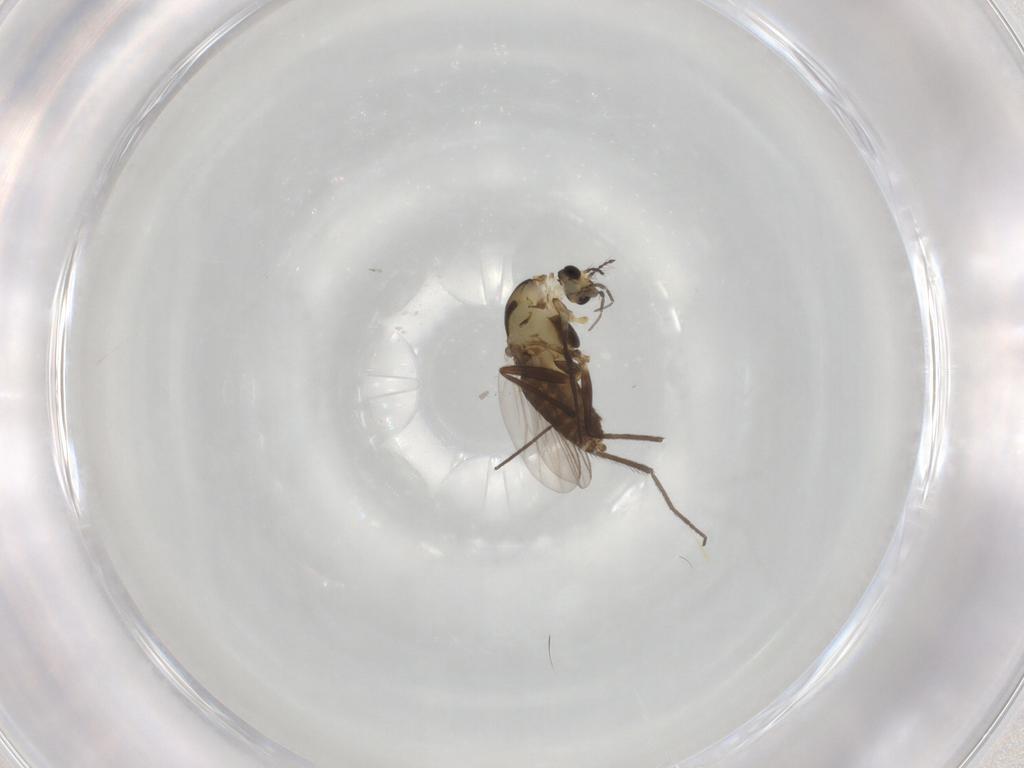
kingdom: Animalia
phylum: Arthropoda
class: Insecta
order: Diptera
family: Chironomidae
